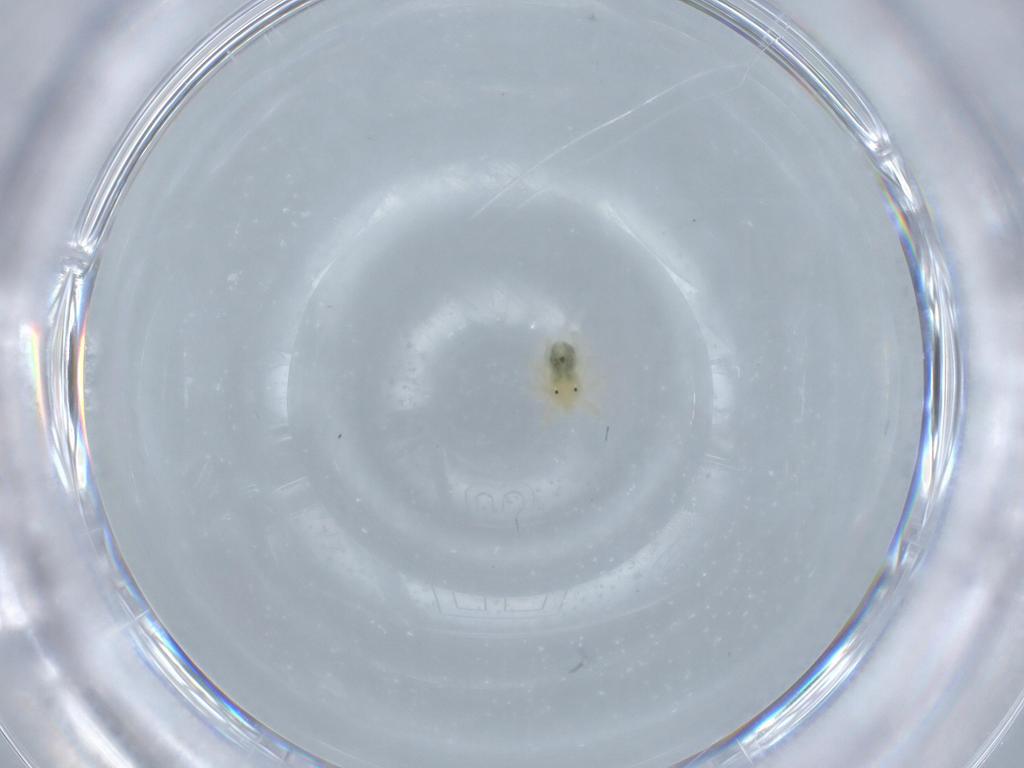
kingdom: Animalia
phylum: Arthropoda
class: Arachnida
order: Trombidiformes
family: Anystidae
